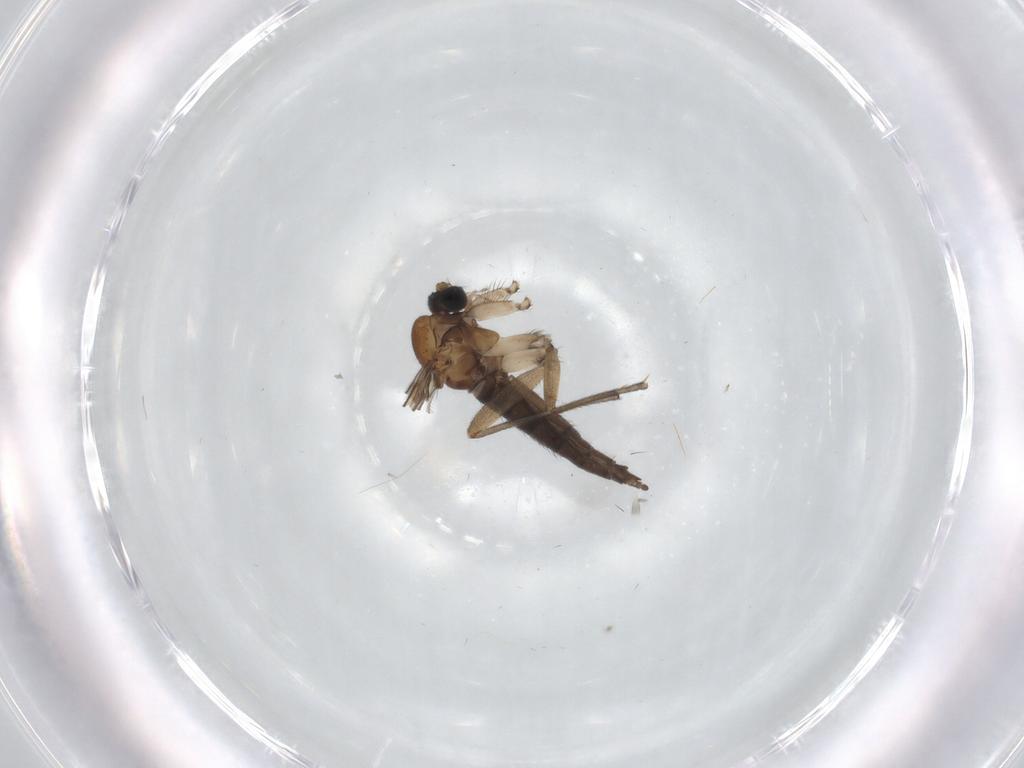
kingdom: Animalia
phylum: Arthropoda
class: Insecta
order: Diptera
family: Sciaridae
